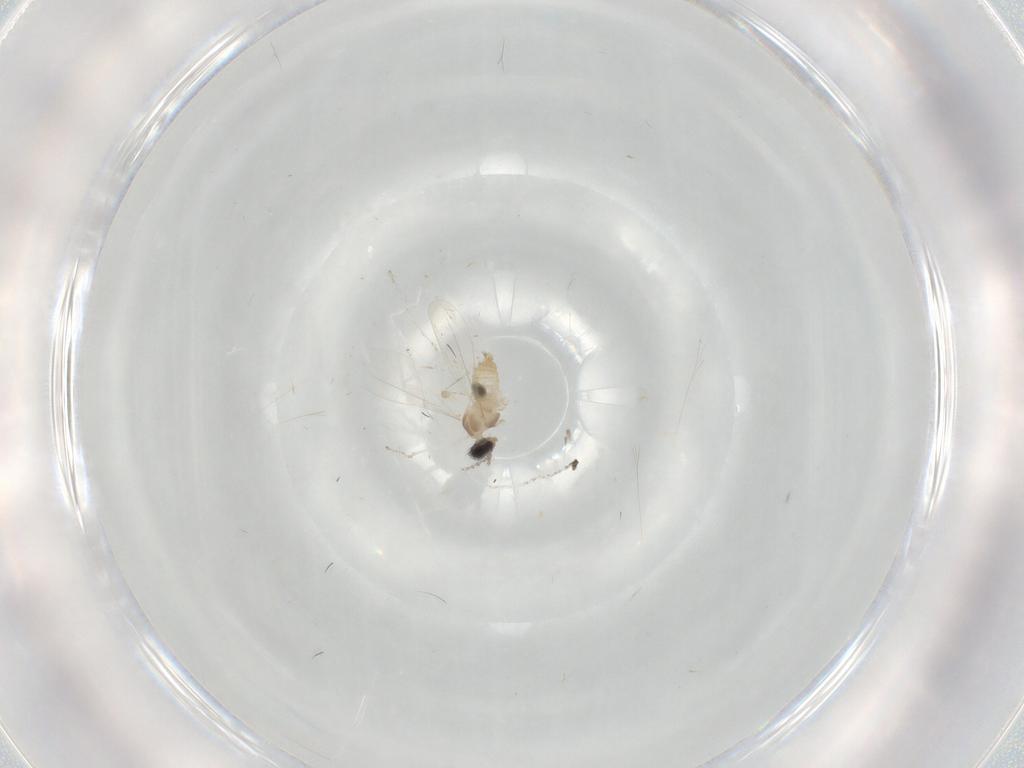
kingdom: Animalia
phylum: Arthropoda
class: Insecta
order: Diptera
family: Cecidomyiidae
